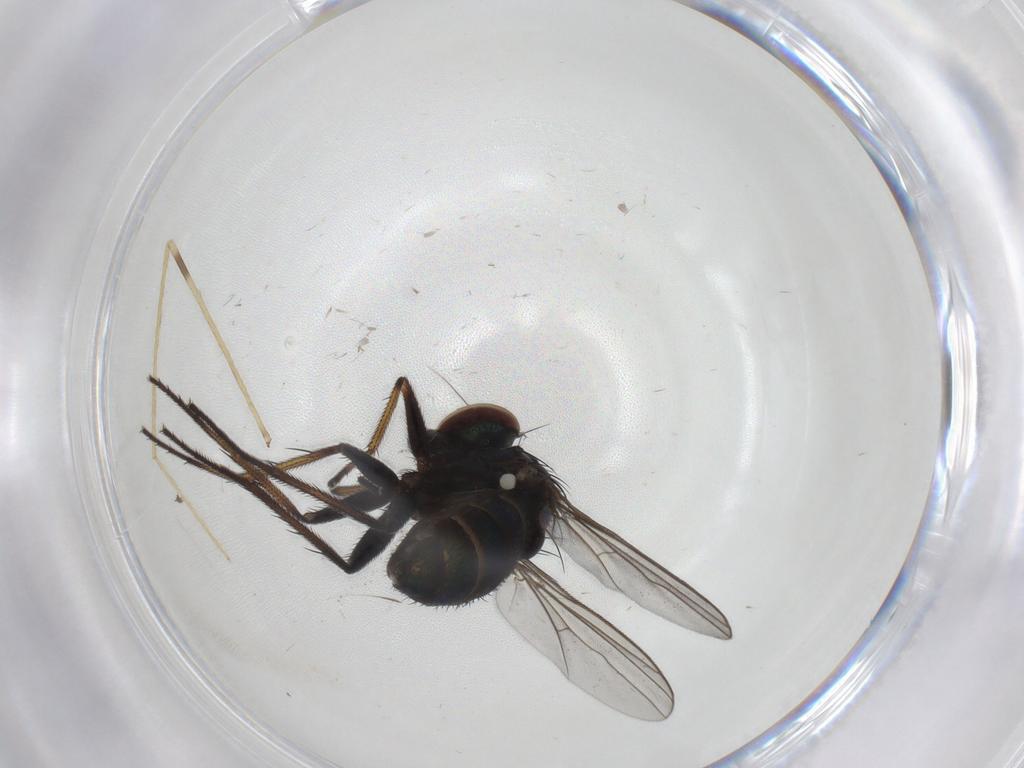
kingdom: Animalia
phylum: Arthropoda
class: Insecta
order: Diptera
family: Dolichopodidae
